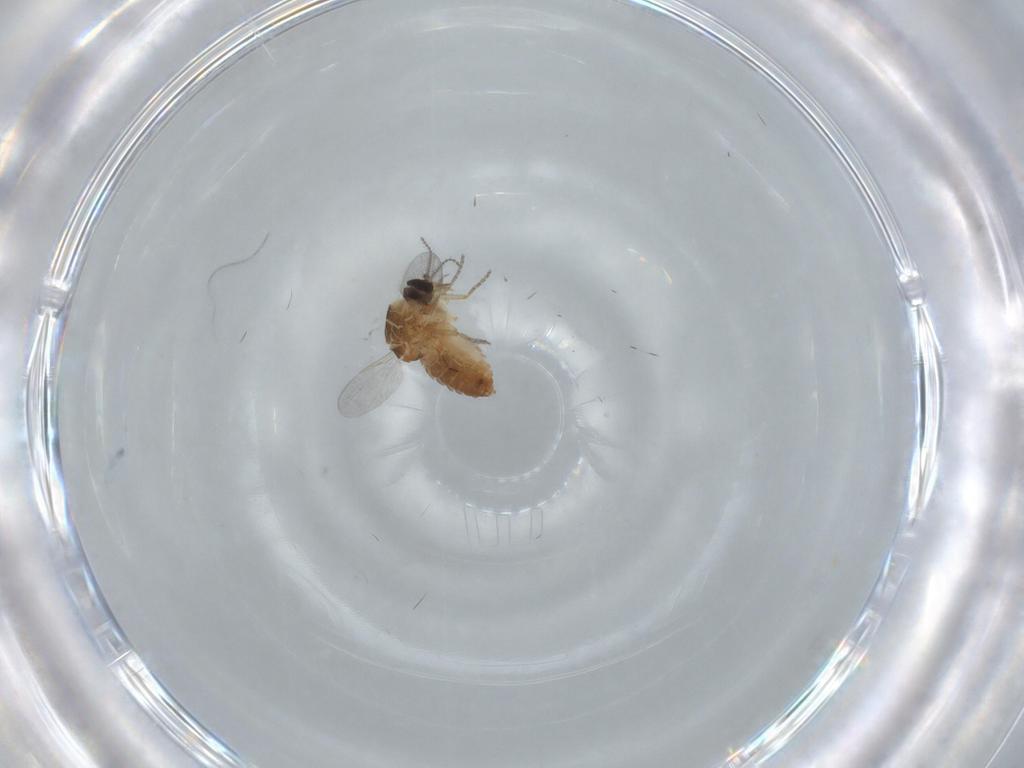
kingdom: Animalia
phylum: Arthropoda
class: Insecta
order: Diptera
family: Ceratopogonidae
